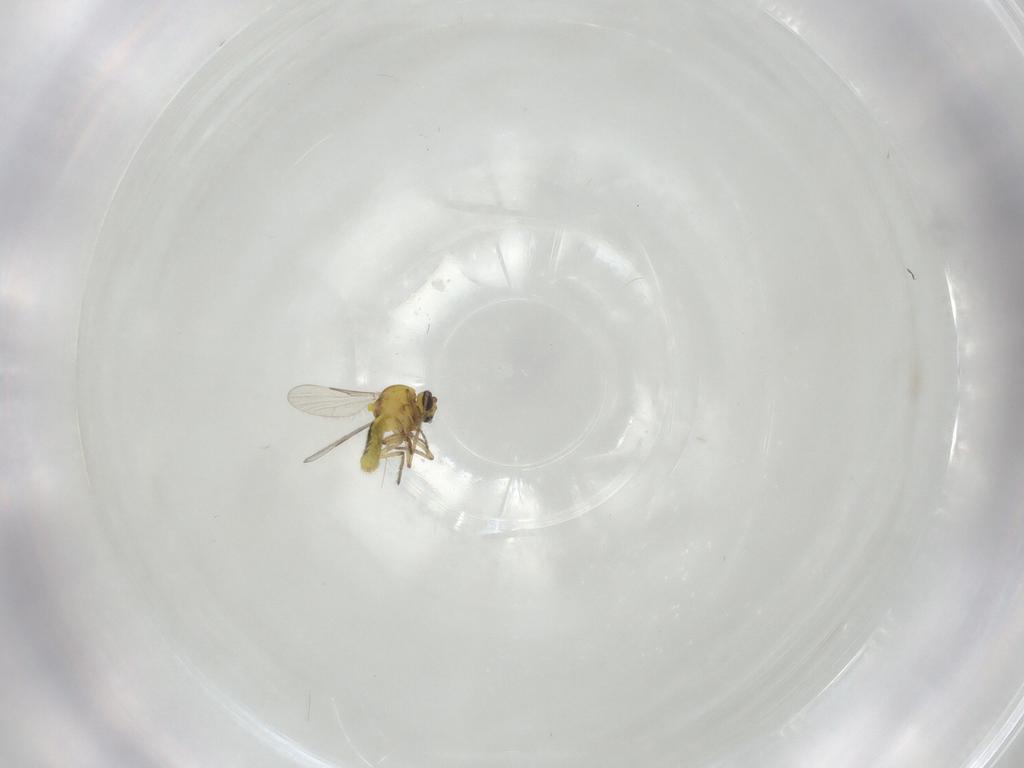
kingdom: Animalia
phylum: Arthropoda
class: Insecta
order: Diptera
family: Ceratopogonidae
